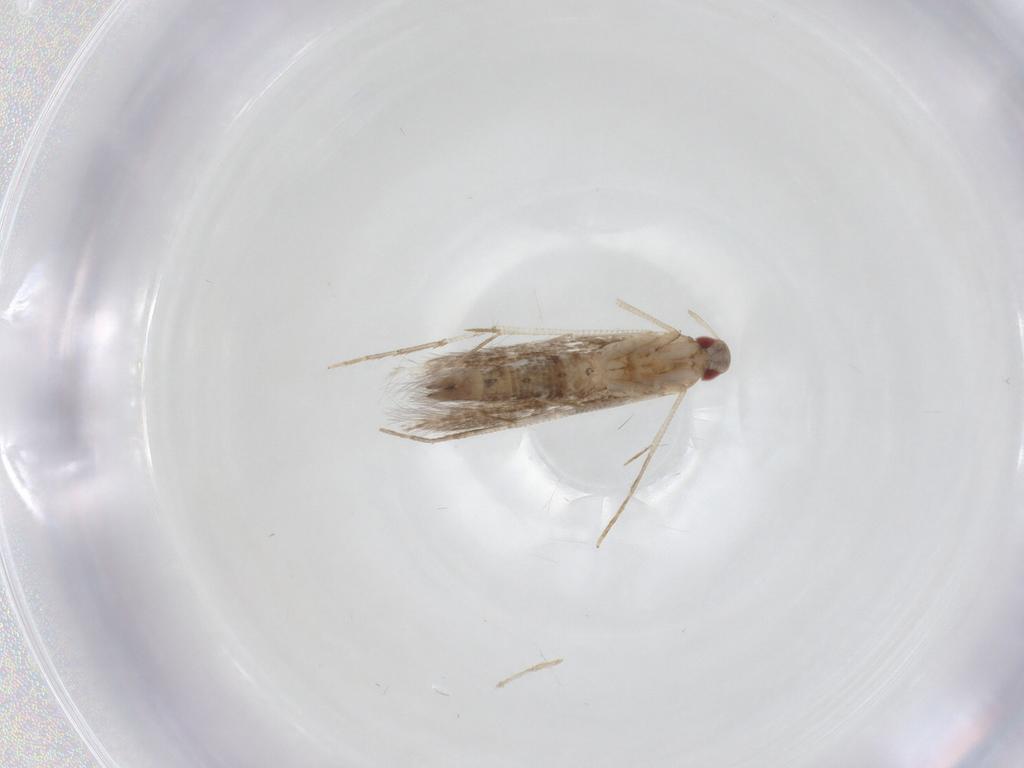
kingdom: Animalia
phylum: Arthropoda
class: Insecta
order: Lepidoptera
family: Cosmopterigidae
